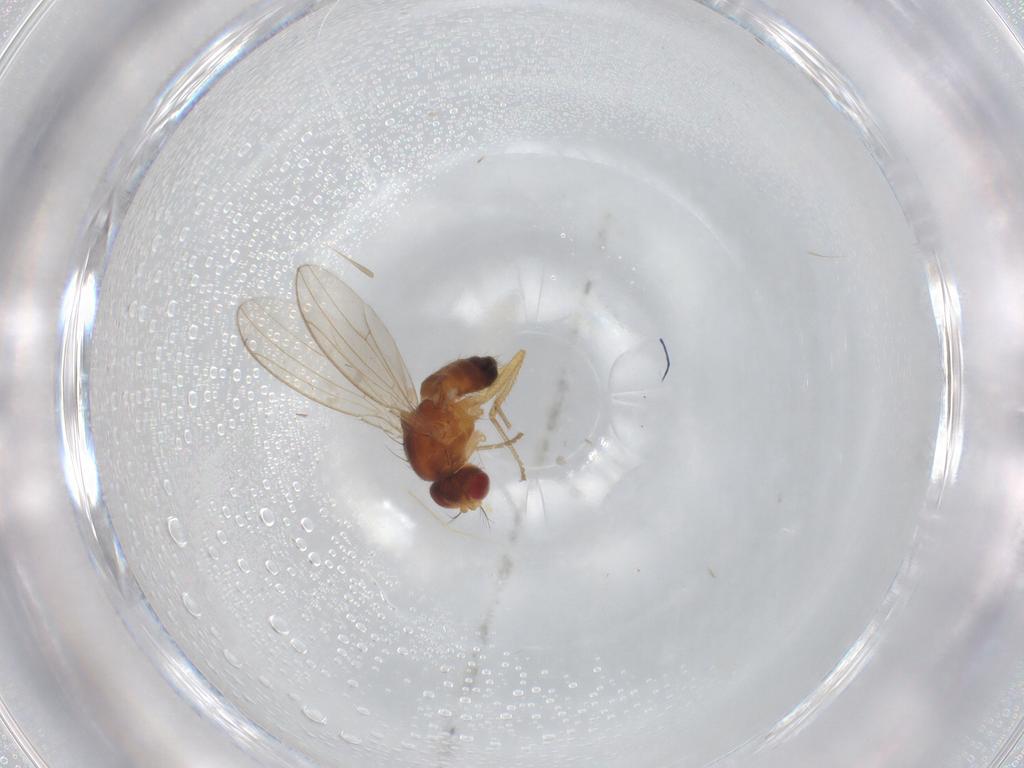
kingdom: Animalia
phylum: Arthropoda
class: Insecta
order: Diptera
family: Drosophilidae
